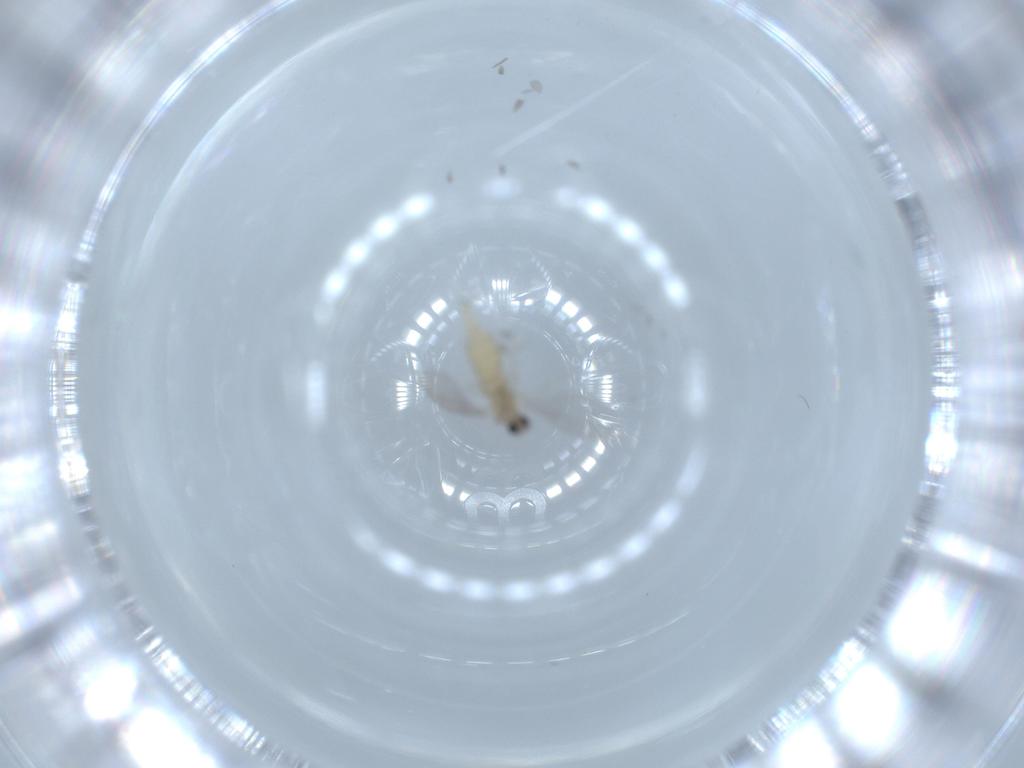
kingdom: Animalia
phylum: Arthropoda
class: Insecta
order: Diptera
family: Cecidomyiidae
